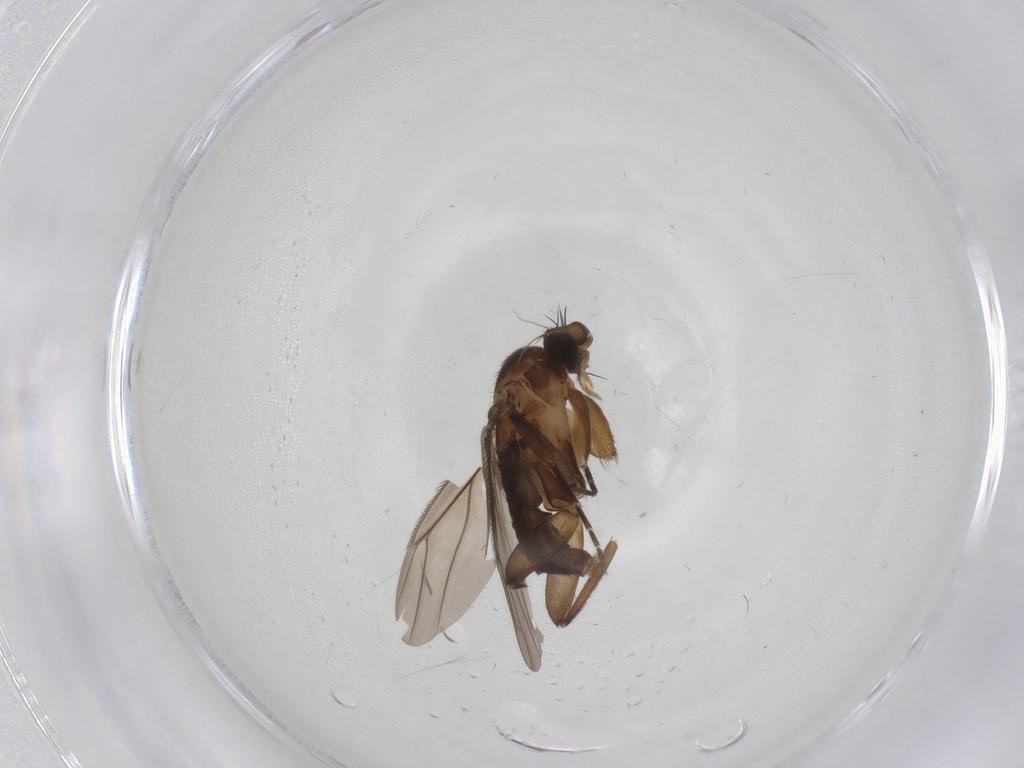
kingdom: Animalia
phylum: Arthropoda
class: Insecta
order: Diptera
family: Phoridae
